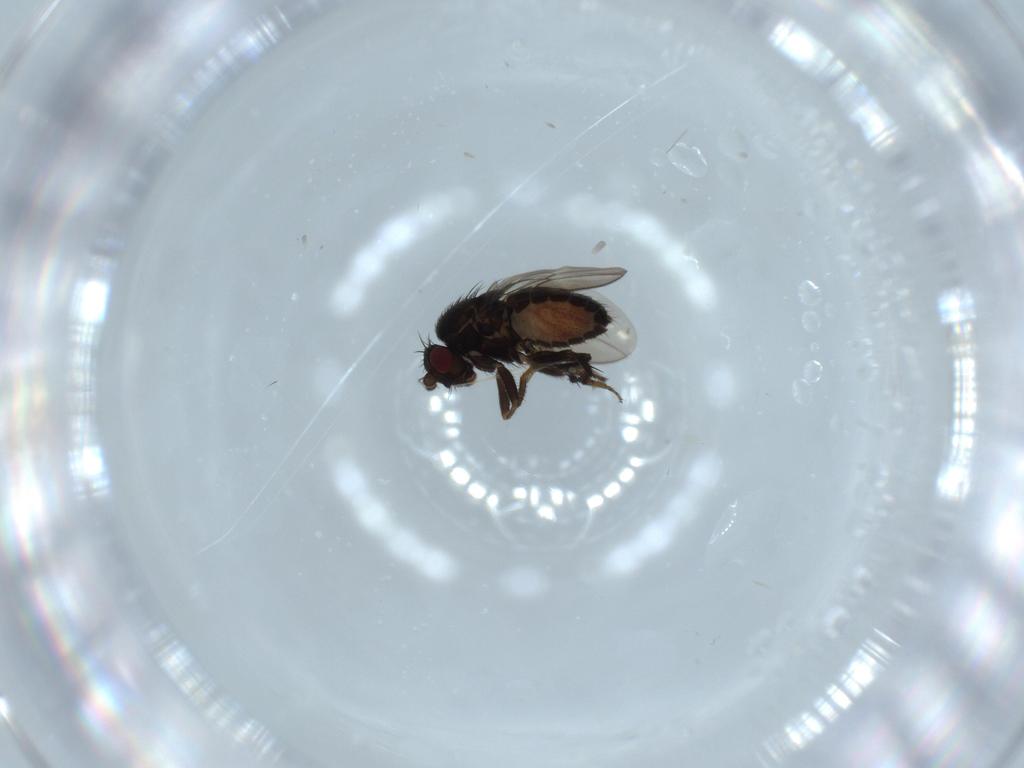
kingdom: Animalia
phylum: Arthropoda
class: Insecta
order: Diptera
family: Sphaeroceridae
